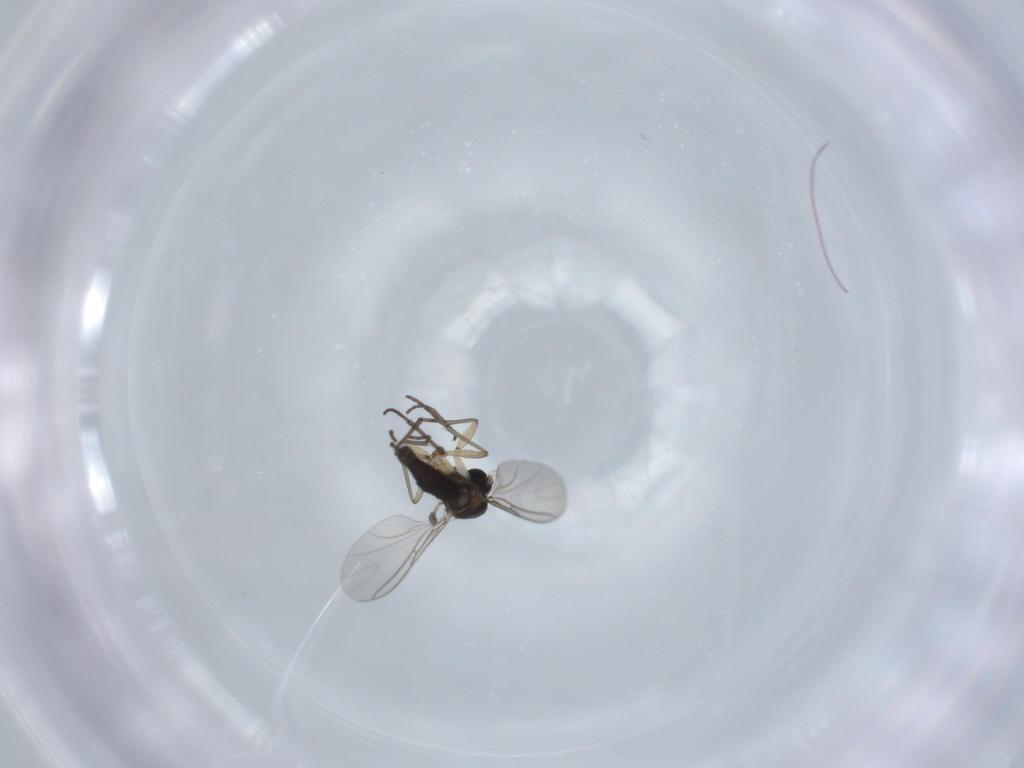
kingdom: Animalia
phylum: Arthropoda
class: Insecta
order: Diptera
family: Sciaridae
